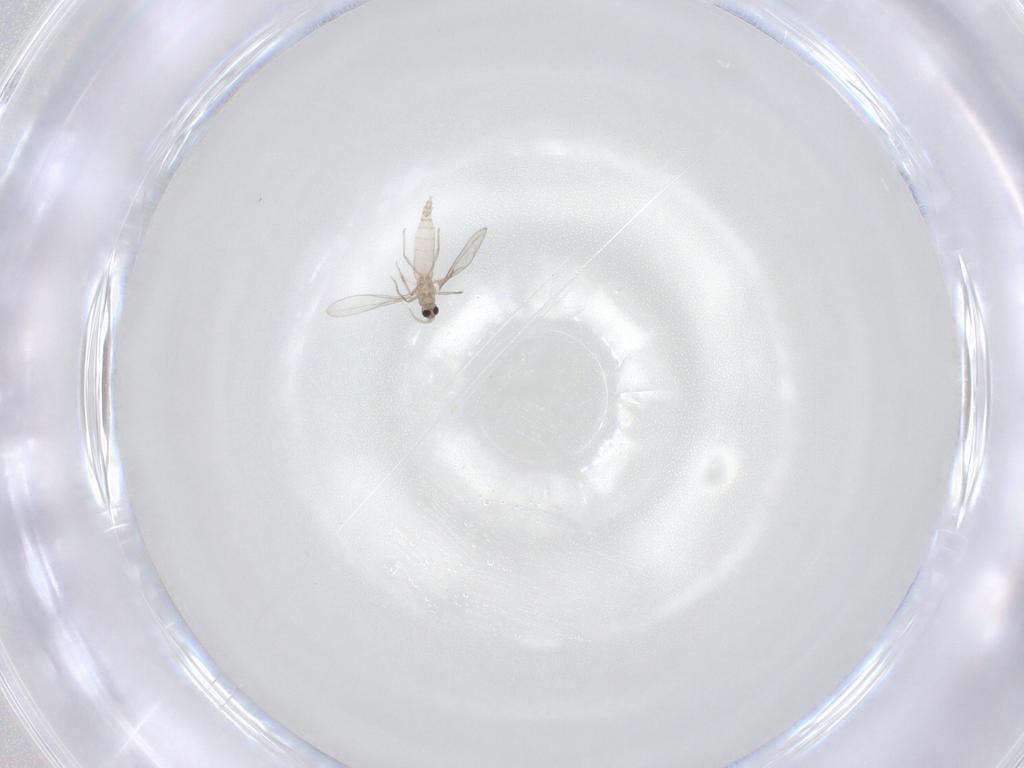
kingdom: Animalia
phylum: Arthropoda
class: Insecta
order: Diptera
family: Cecidomyiidae
